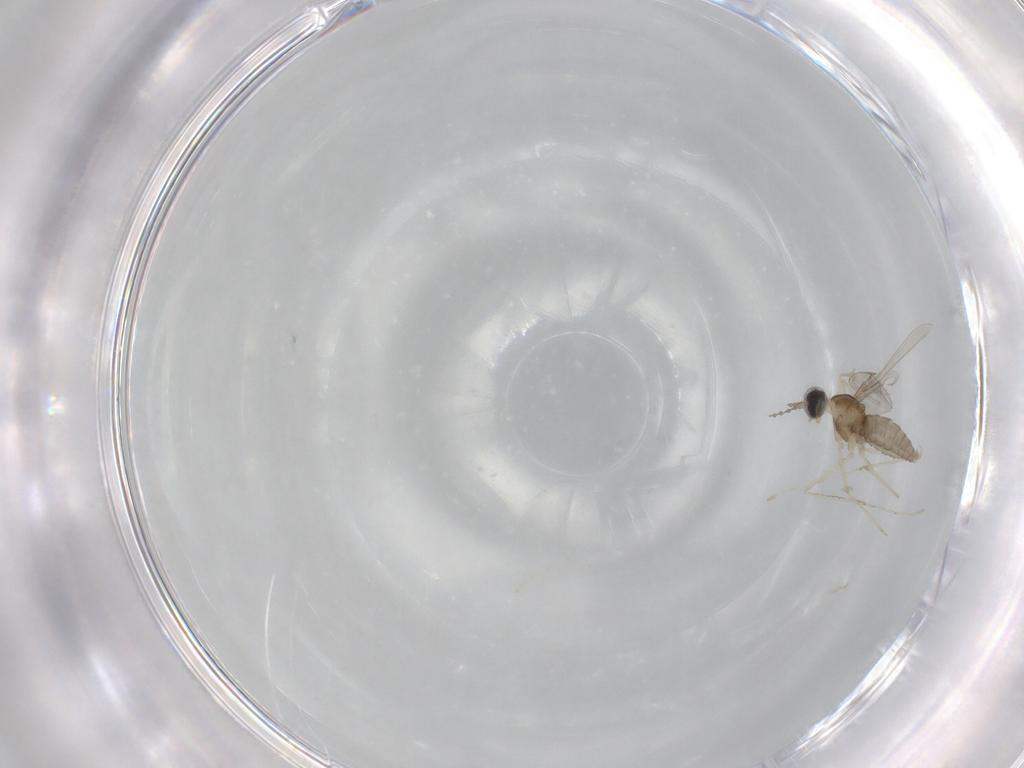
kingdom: Animalia
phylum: Arthropoda
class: Insecta
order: Diptera
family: Cecidomyiidae
